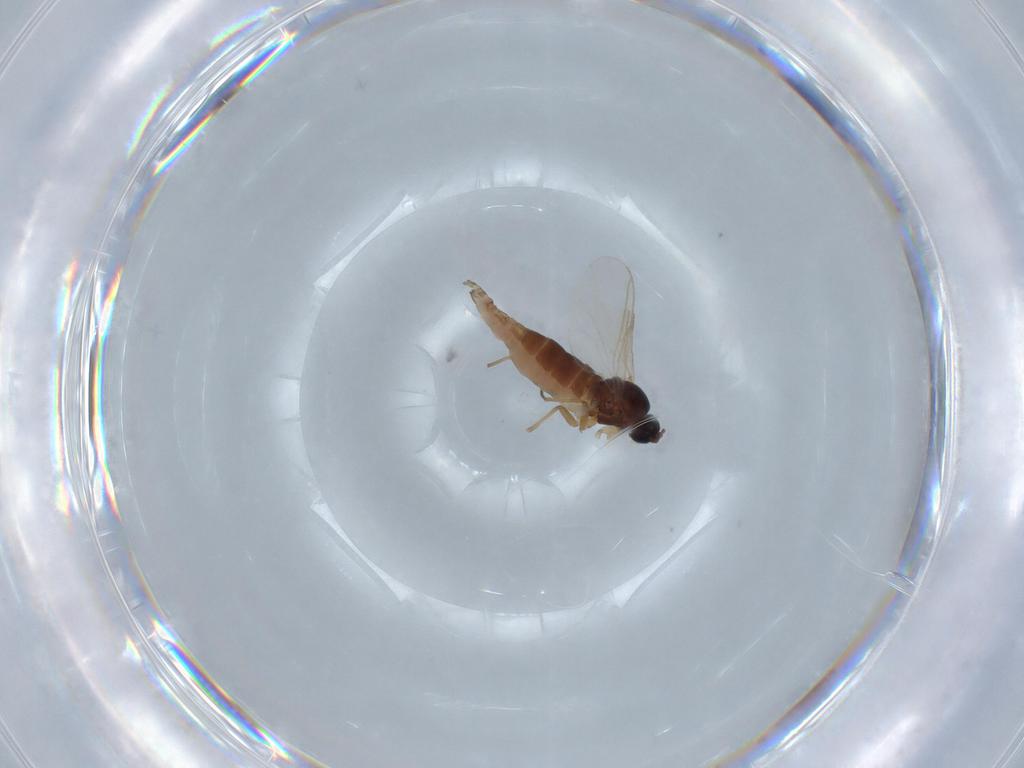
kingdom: Animalia
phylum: Arthropoda
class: Insecta
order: Diptera
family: Sciaridae
